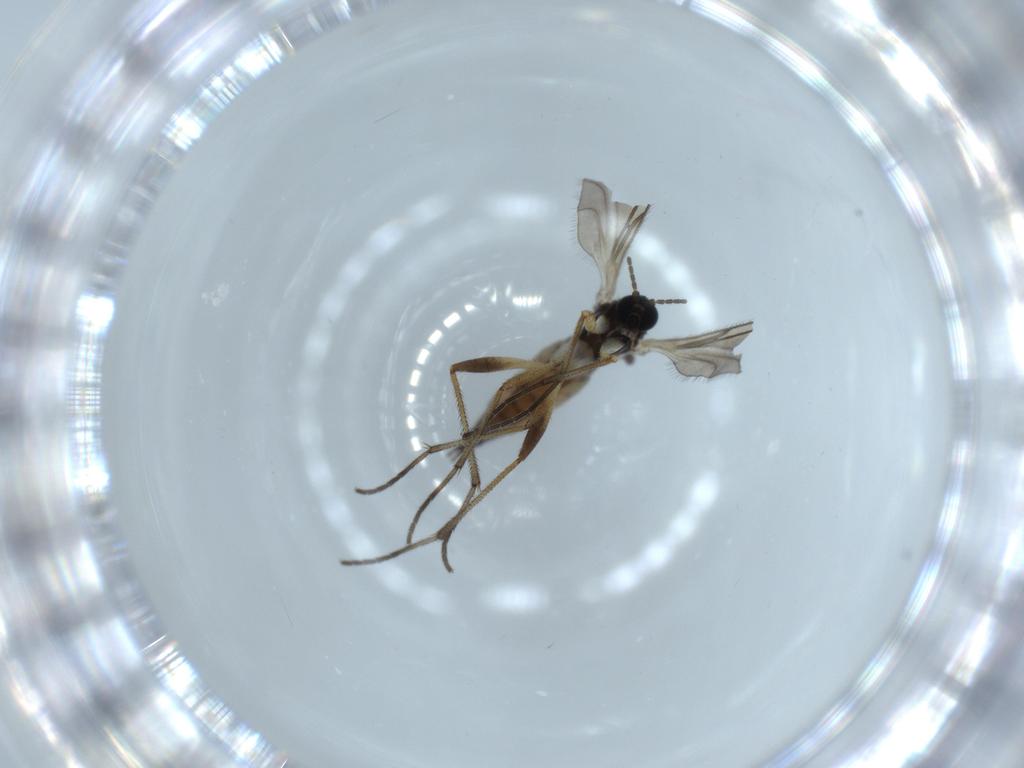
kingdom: Animalia
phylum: Arthropoda
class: Insecta
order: Diptera
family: Sciaridae
